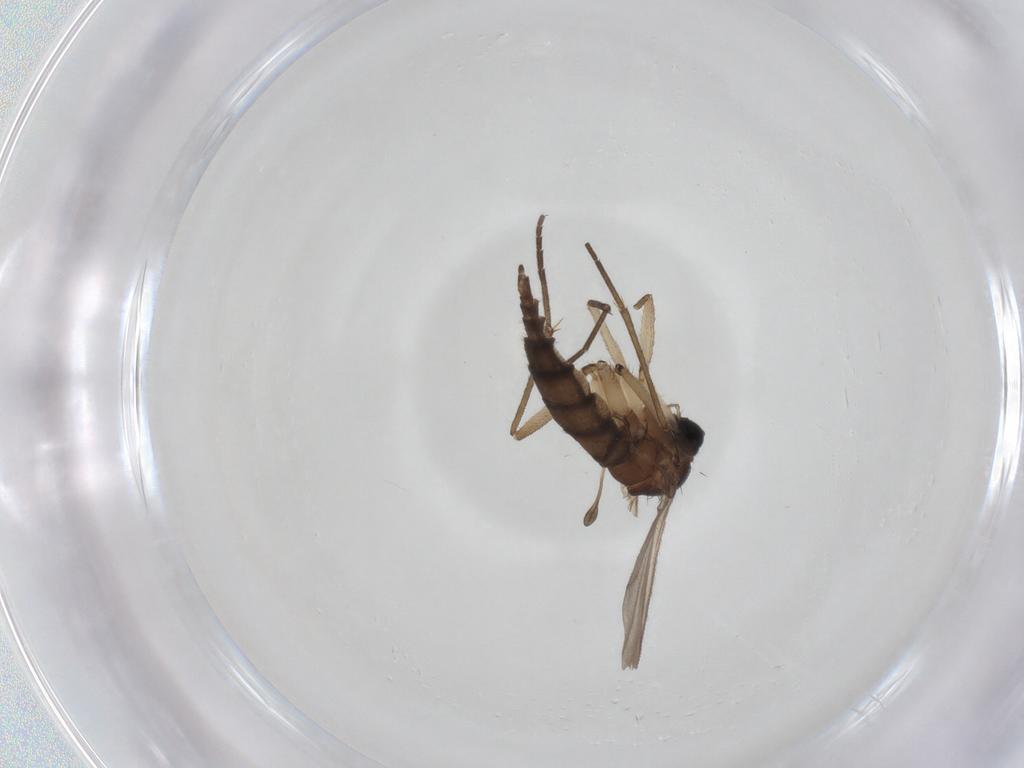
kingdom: Animalia
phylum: Arthropoda
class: Insecta
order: Diptera
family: Sciaridae
